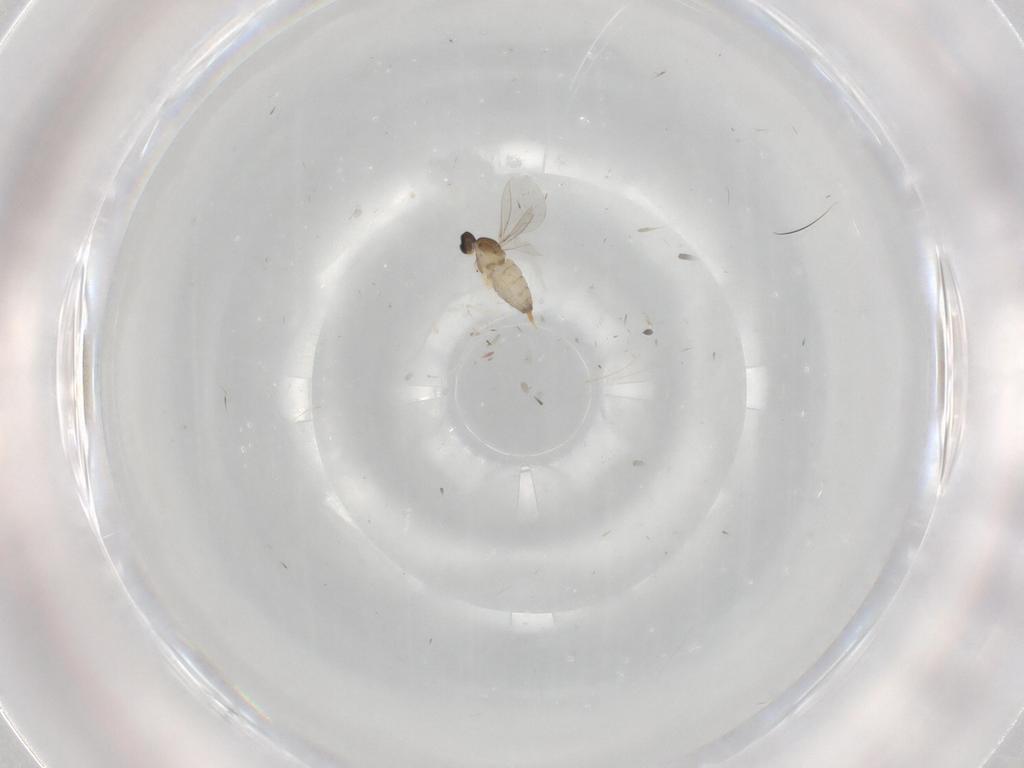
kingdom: Animalia
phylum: Arthropoda
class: Insecta
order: Diptera
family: Cecidomyiidae
